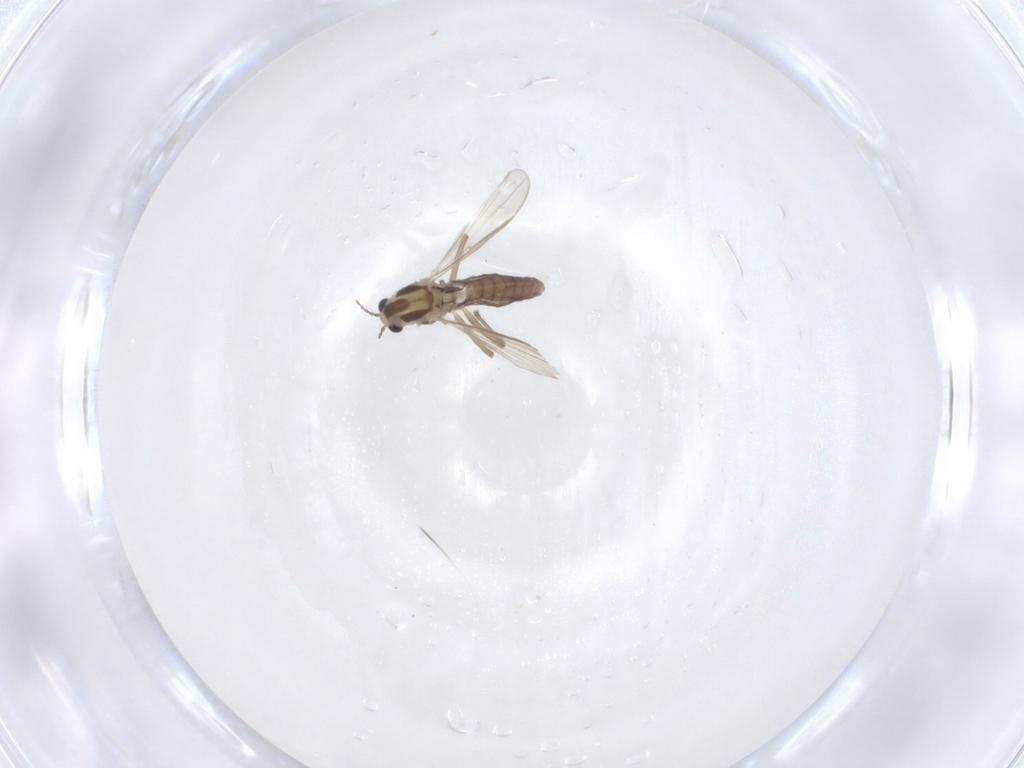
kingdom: Animalia
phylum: Arthropoda
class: Insecta
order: Diptera
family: Chironomidae
